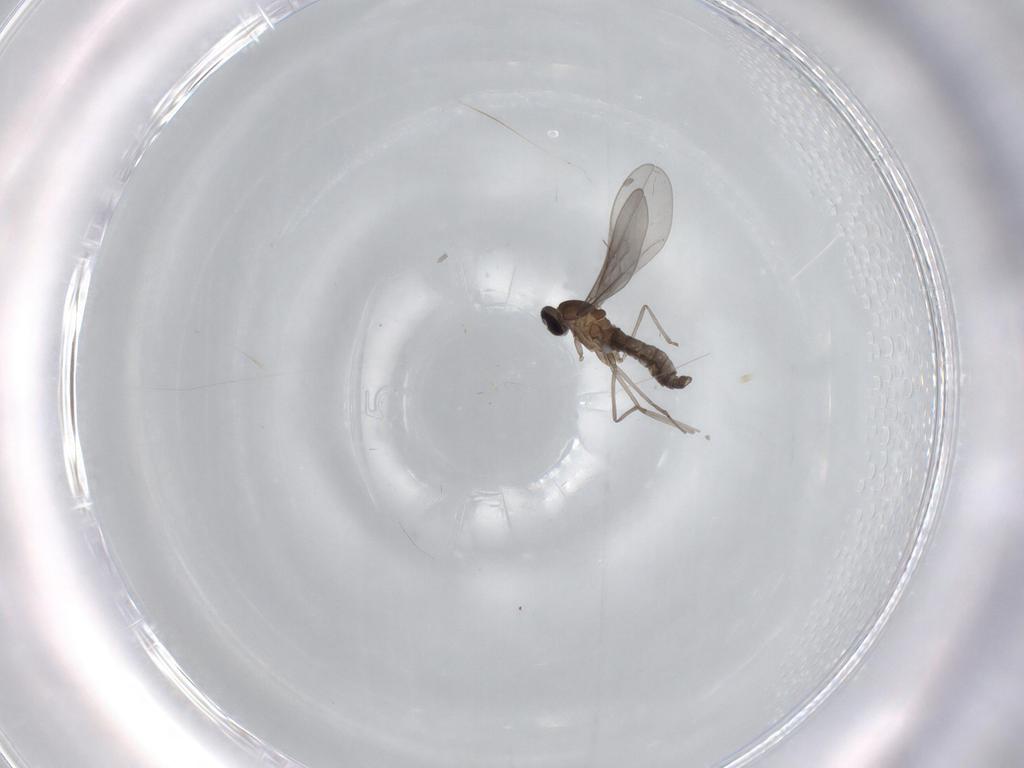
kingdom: Animalia
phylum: Arthropoda
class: Insecta
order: Diptera
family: Cecidomyiidae
